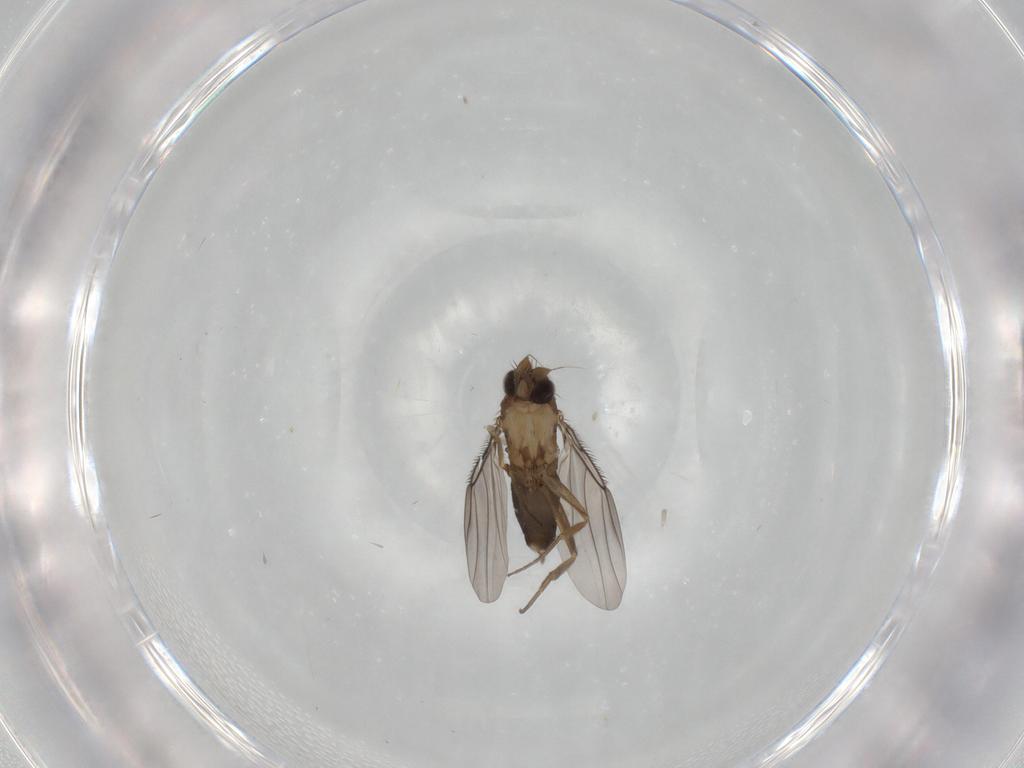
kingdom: Animalia
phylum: Arthropoda
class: Insecta
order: Diptera
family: Phoridae
